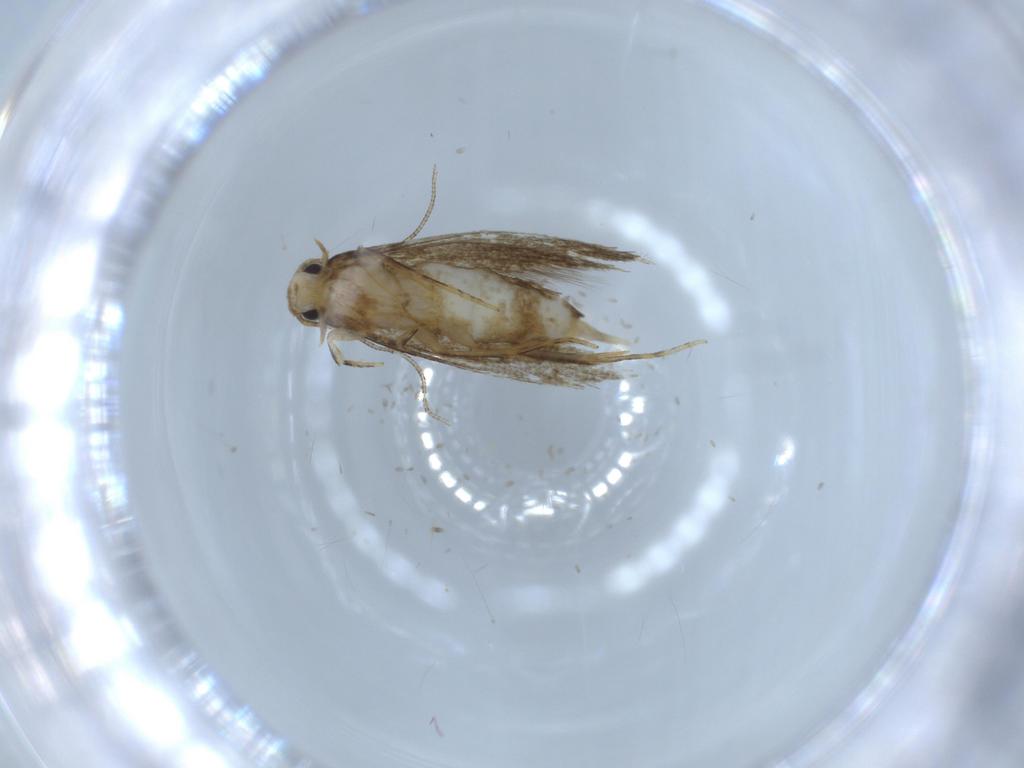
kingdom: Animalia
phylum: Arthropoda
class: Insecta
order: Lepidoptera
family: Tineidae
